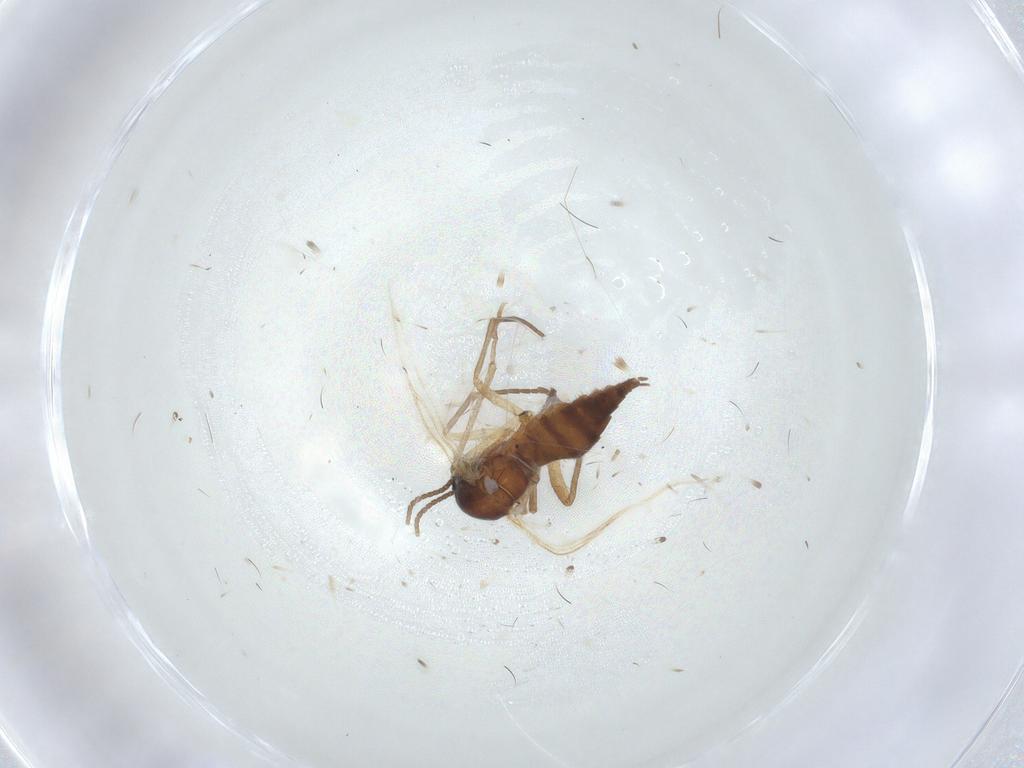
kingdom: Animalia
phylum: Arthropoda
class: Insecta
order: Diptera
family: Sciaridae
